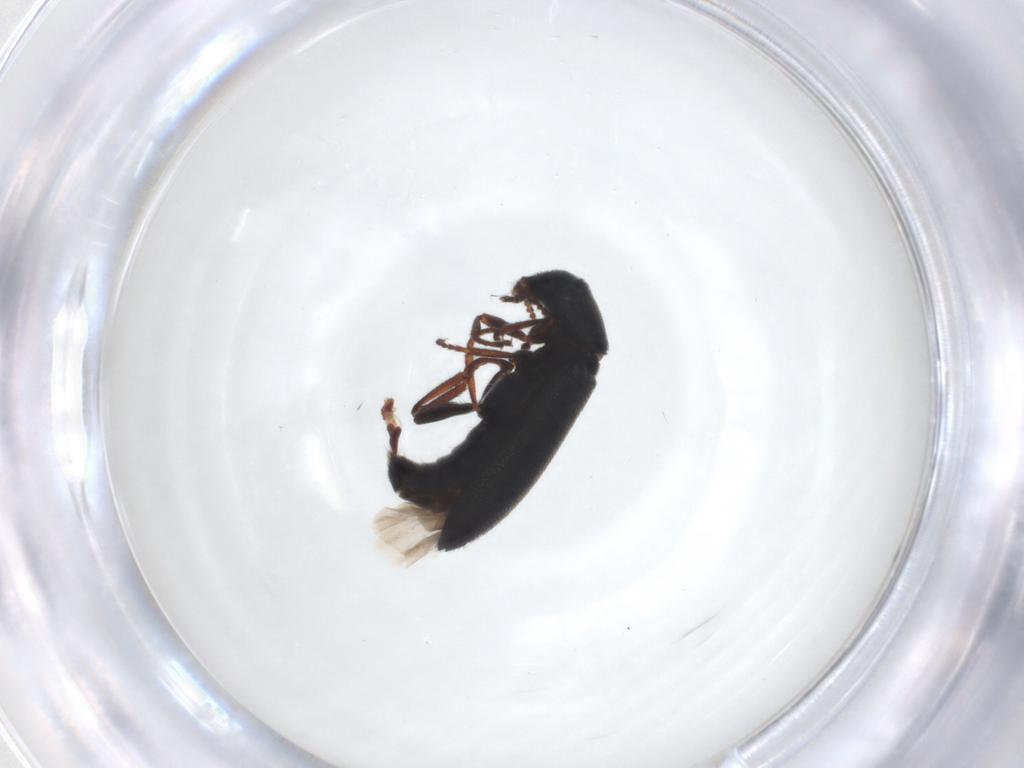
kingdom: Animalia
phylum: Arthropoda
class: Insecta
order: Coleoptera
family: Melyridae
